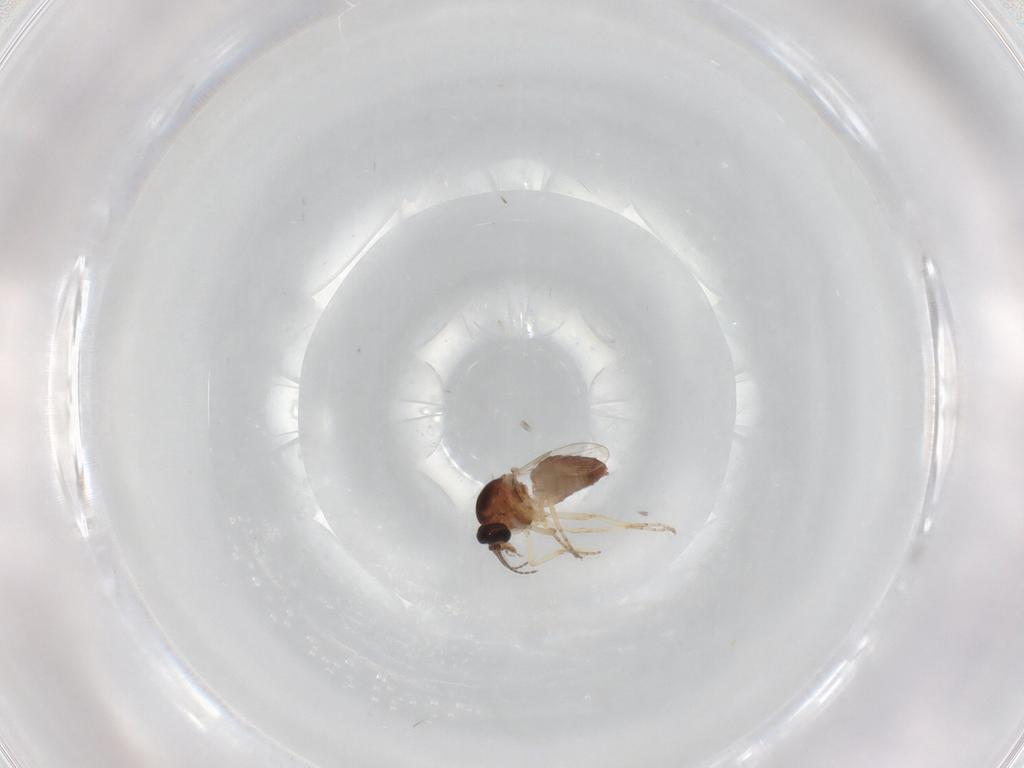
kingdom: Animalia
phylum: Arthropoda
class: Insecta
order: Diptera
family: Ceratopogonidae
